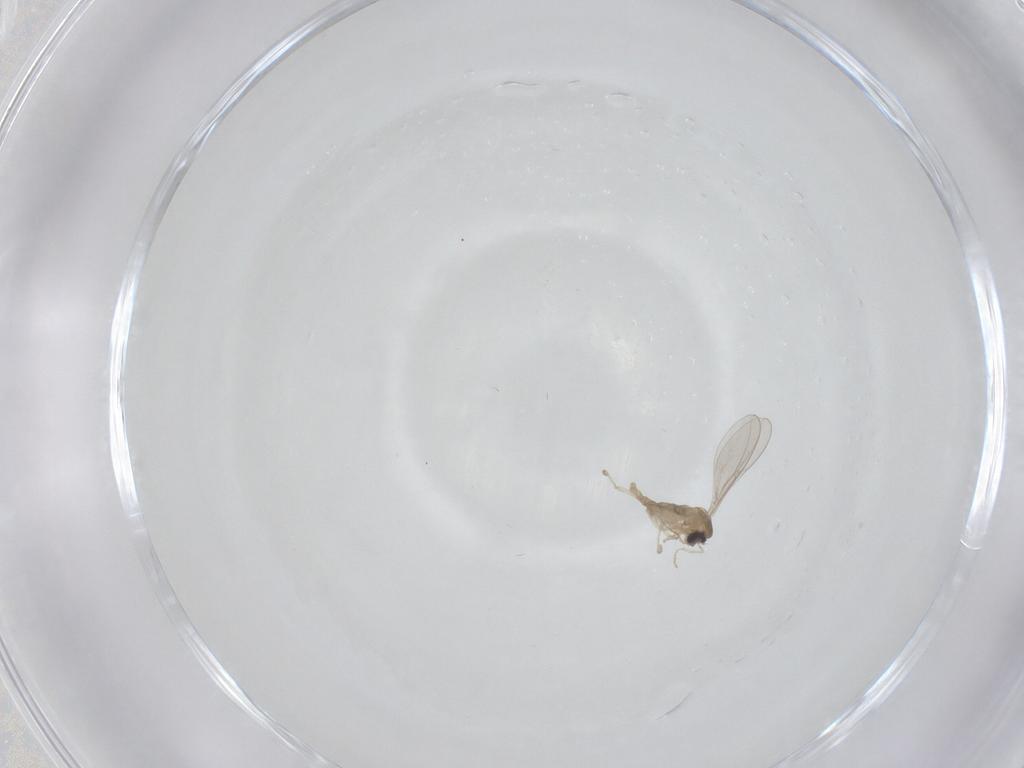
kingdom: Animalia
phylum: Arthropoda
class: Insecta
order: Diptera
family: Cecidomyiidae
